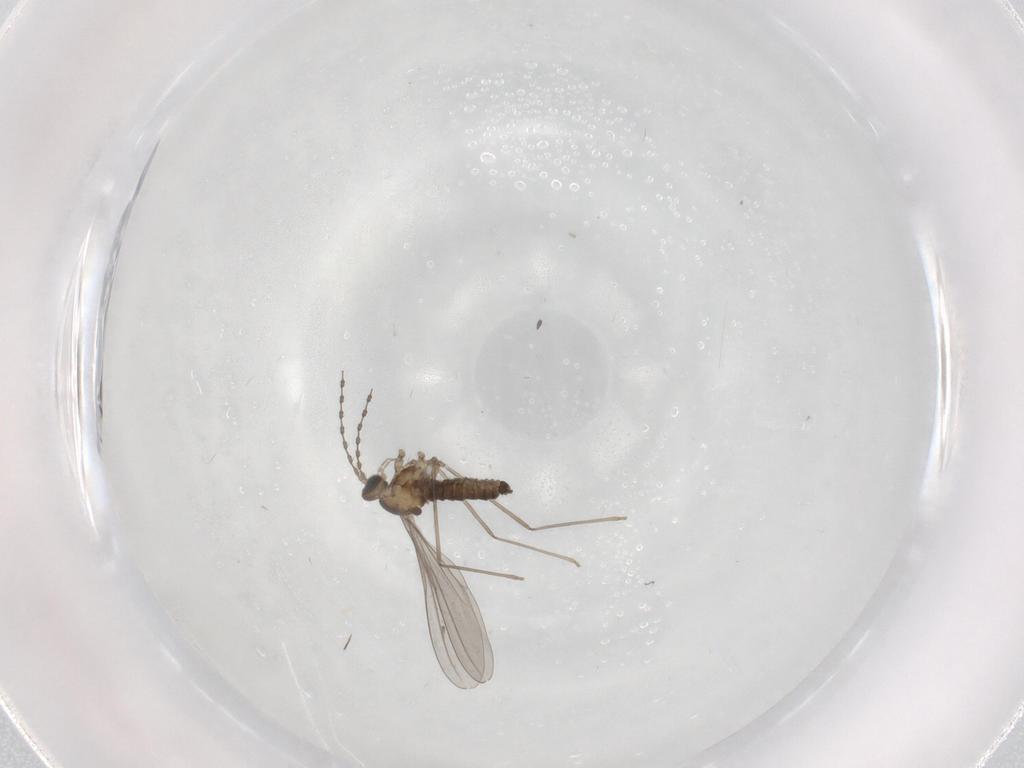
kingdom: Animalia
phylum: Arthropoda
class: Insecta
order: Diptera
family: Cecidomyiidae
